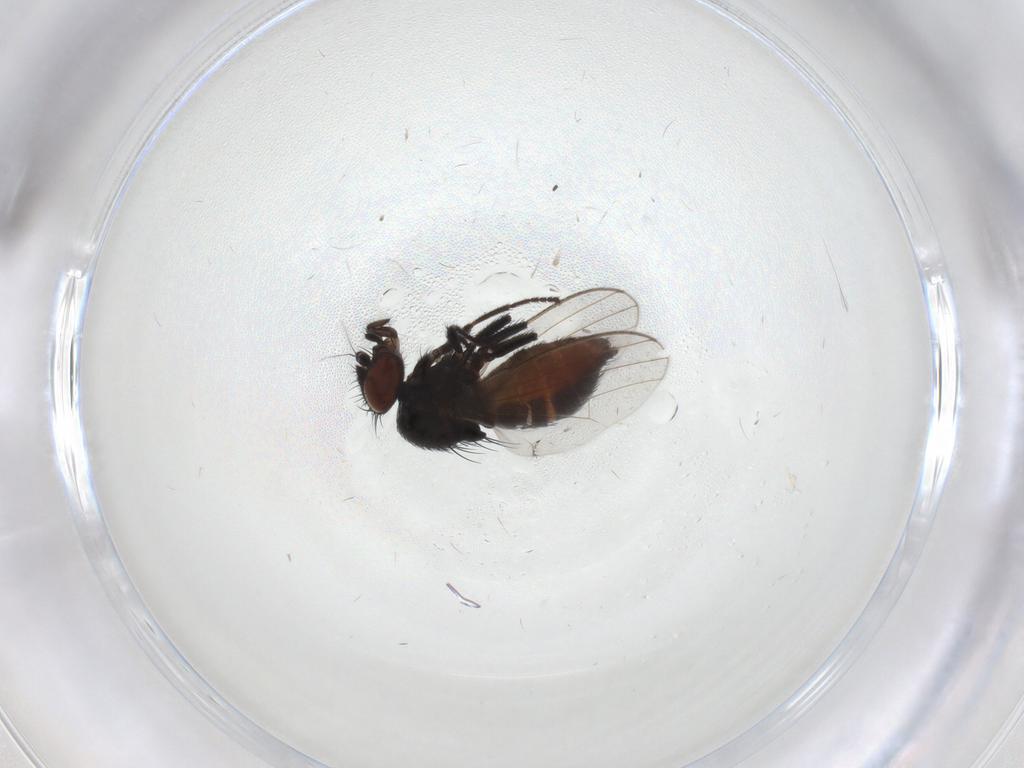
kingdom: Animalia
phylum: Arthropoda
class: Insecta
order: Diptera
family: Milichiidae
